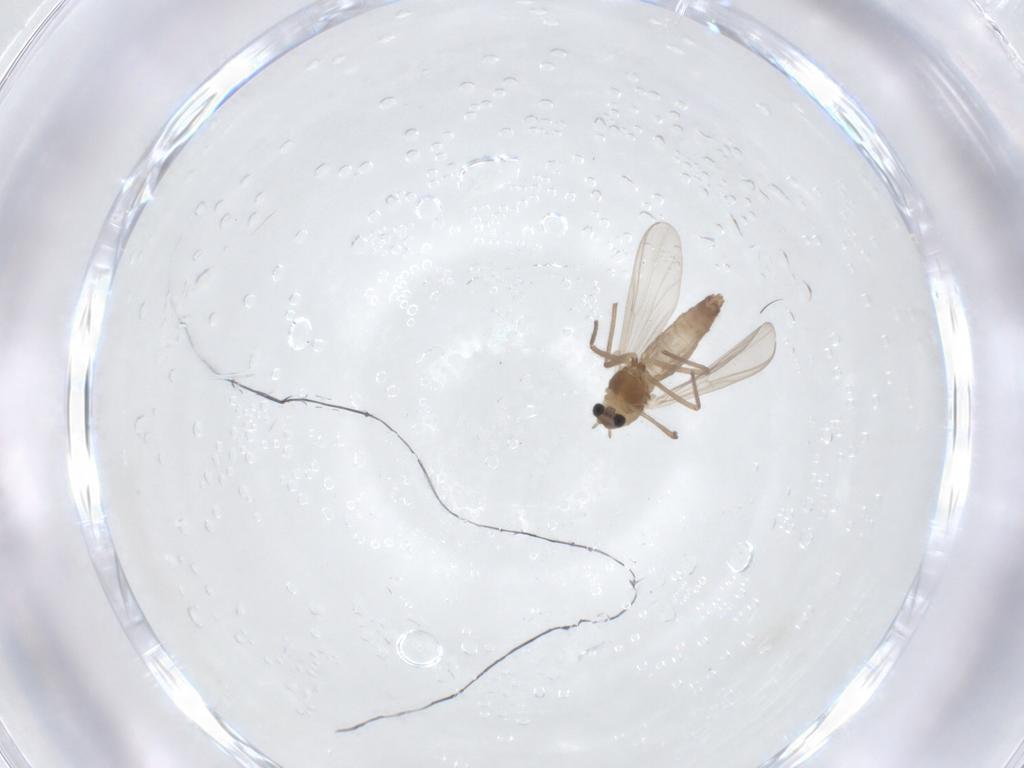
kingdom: Animalia
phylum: Arthropoda
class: Insecta
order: Diptera
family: Chironomidae
